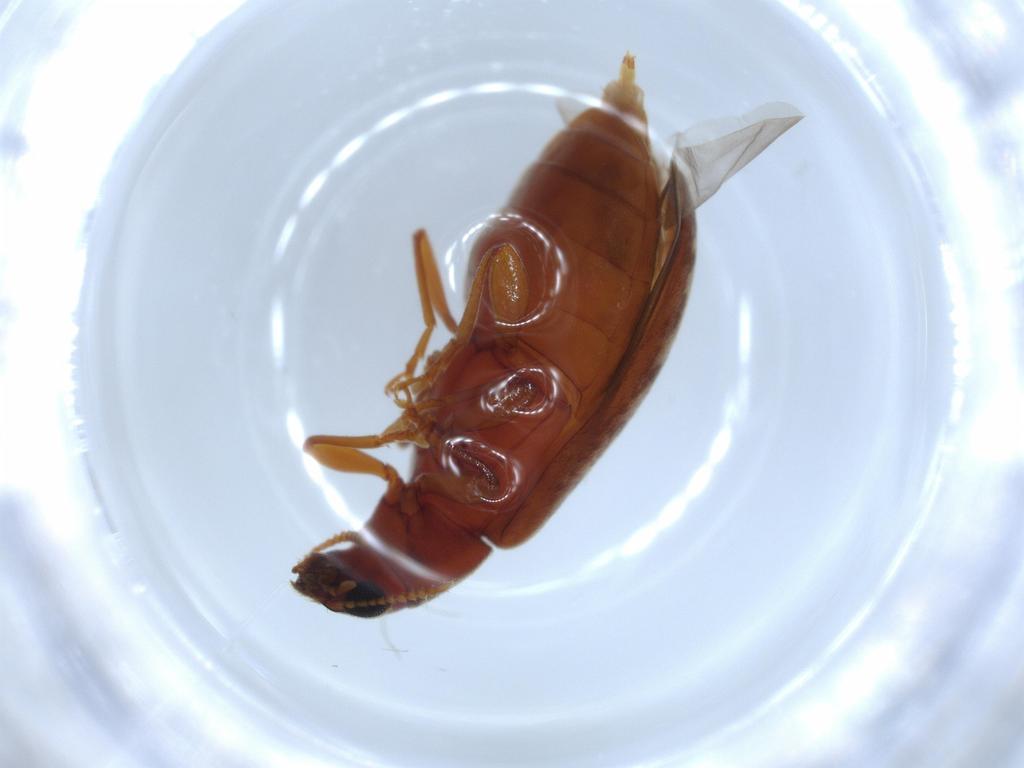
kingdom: Animalia
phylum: Arthropoda
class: Insecta
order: Coleoptera
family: Mycteridae
